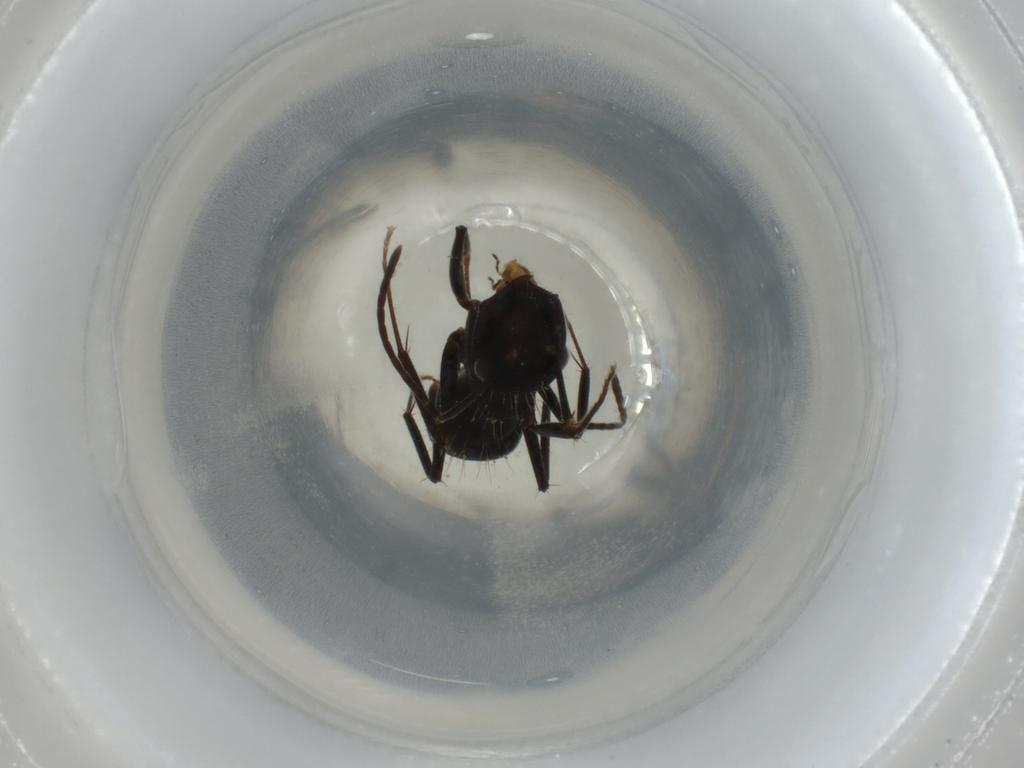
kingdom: Animalia
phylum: Arthropoda
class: Insecta
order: Hymenoptera
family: Formicidae
